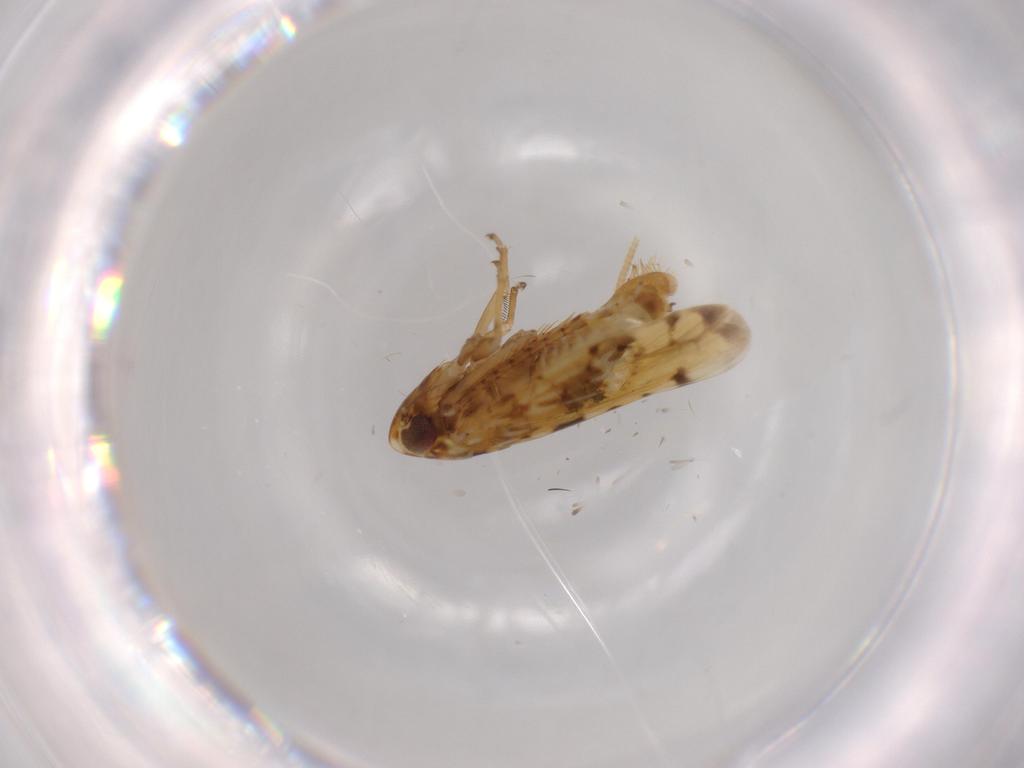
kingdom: Animalia
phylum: Arthropoda
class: Insecta
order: Hemiptera
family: Cicadellidae
